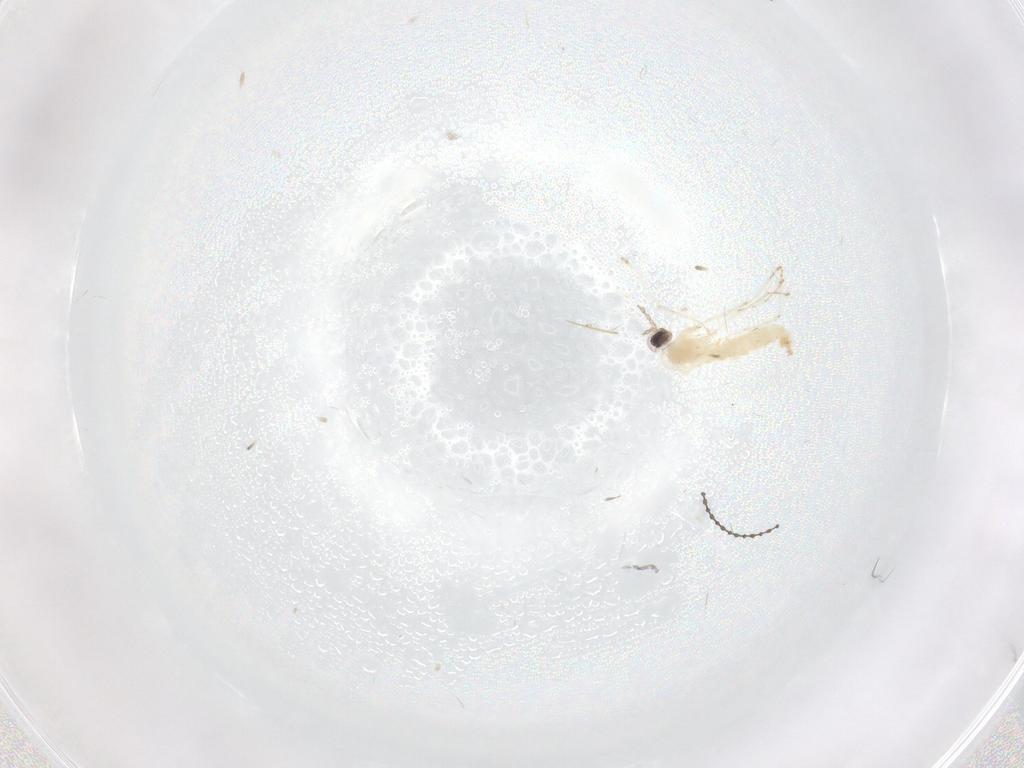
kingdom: Animalia
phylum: Arthropoda
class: Insecta
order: Diptera
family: Cecidomyiidae
